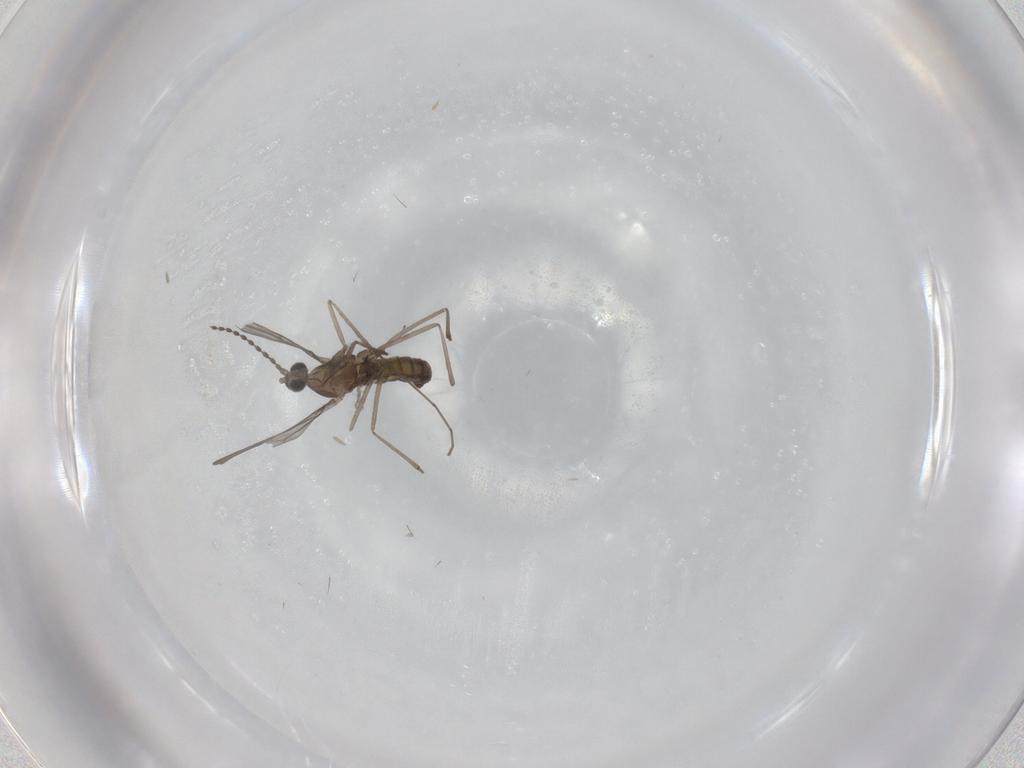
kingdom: Animalia
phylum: Arthropoda
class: Insecta
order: Diptera
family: Cecidomyiidae
